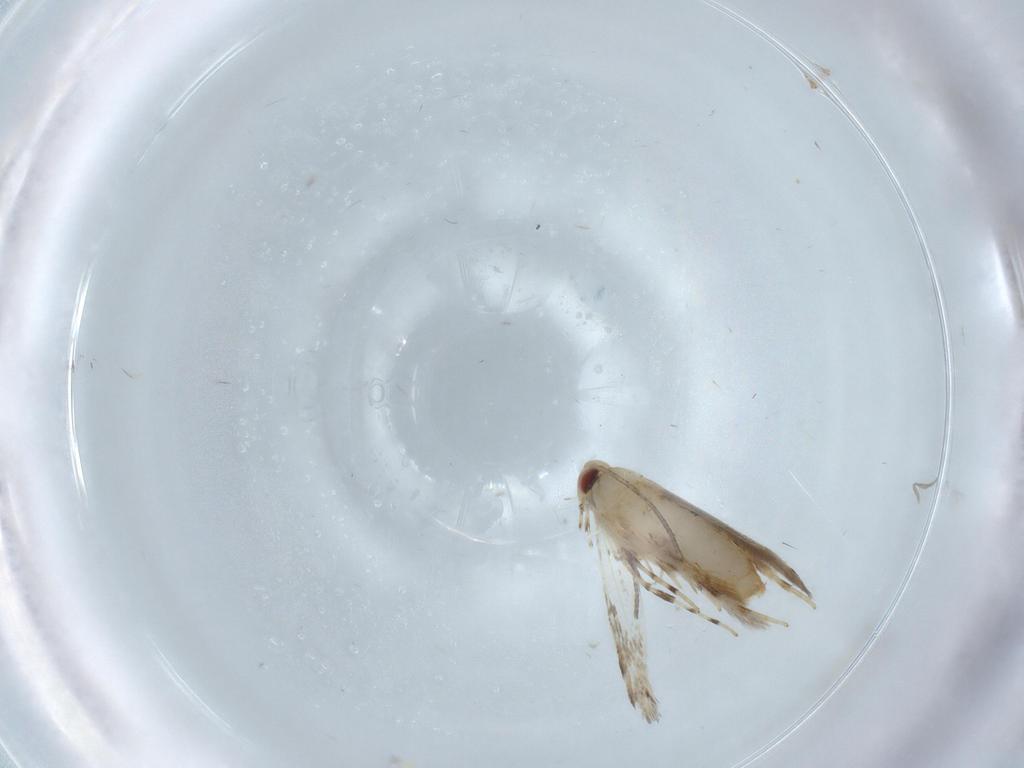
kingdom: Animalia
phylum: Arthropoda
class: Insecta
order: Lepidoptera
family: Gracillariidae
